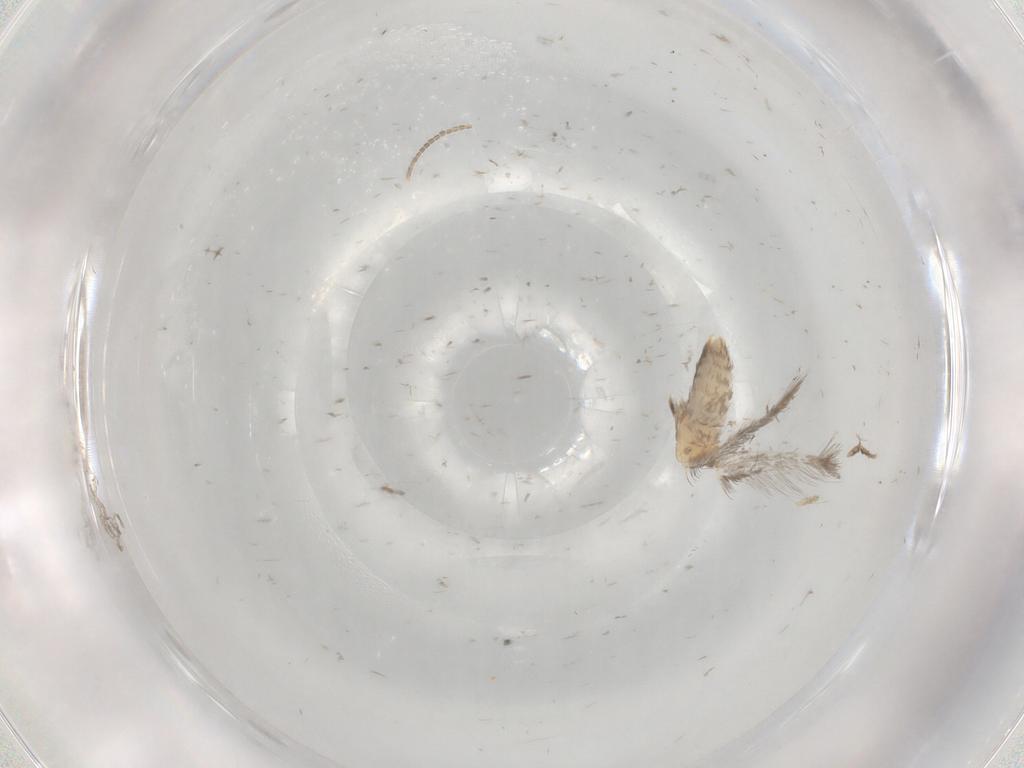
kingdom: Animalia
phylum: Arthropoda
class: Insecta
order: Lepidoptera
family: Nepticulidae
